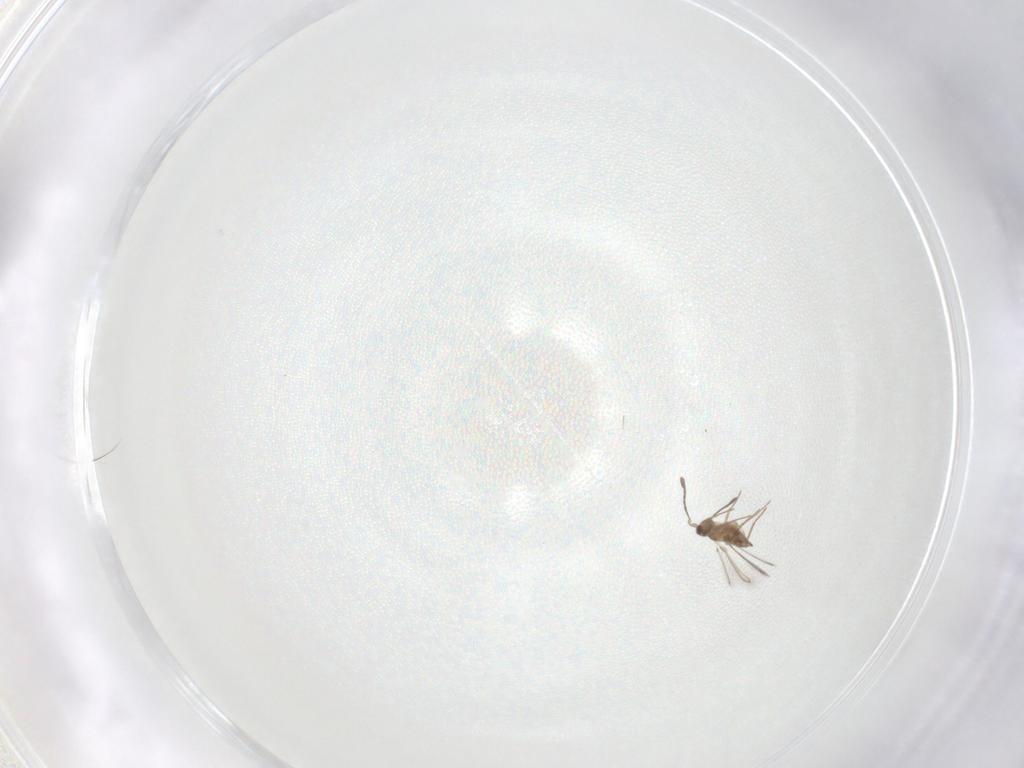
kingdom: Animalia
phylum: Arthropoda
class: Insecta
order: Hymenoptera
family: Mymaridae
